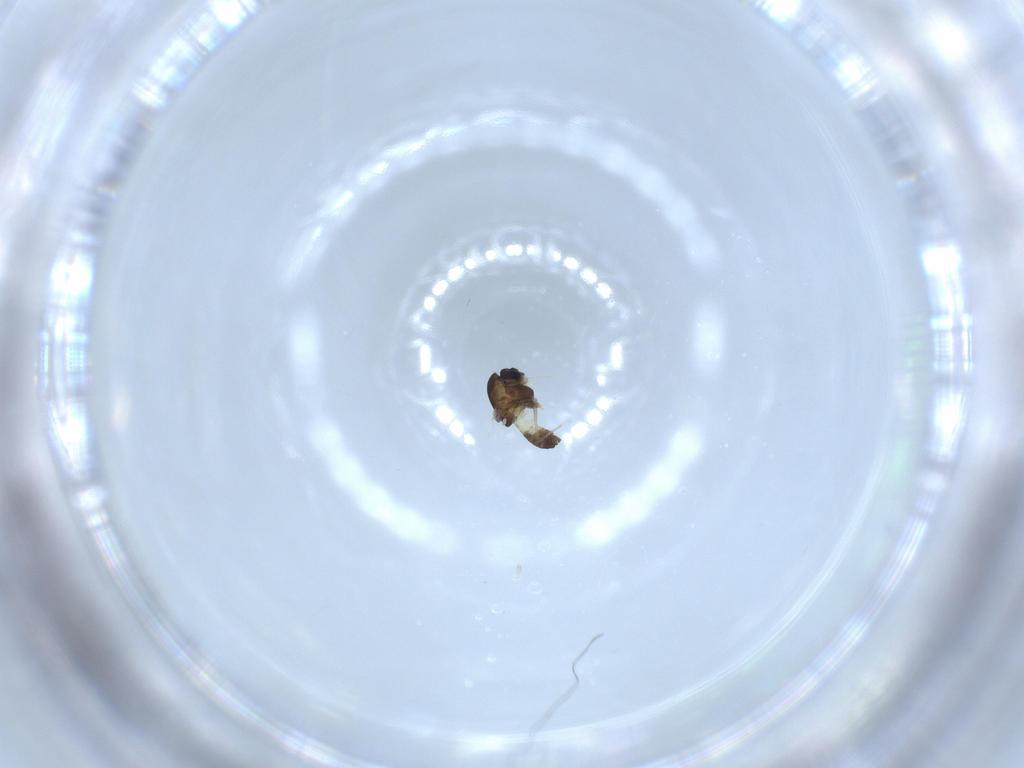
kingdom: Animalia
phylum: Arthropoda
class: Insecta
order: Diptera
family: Chironomidae
